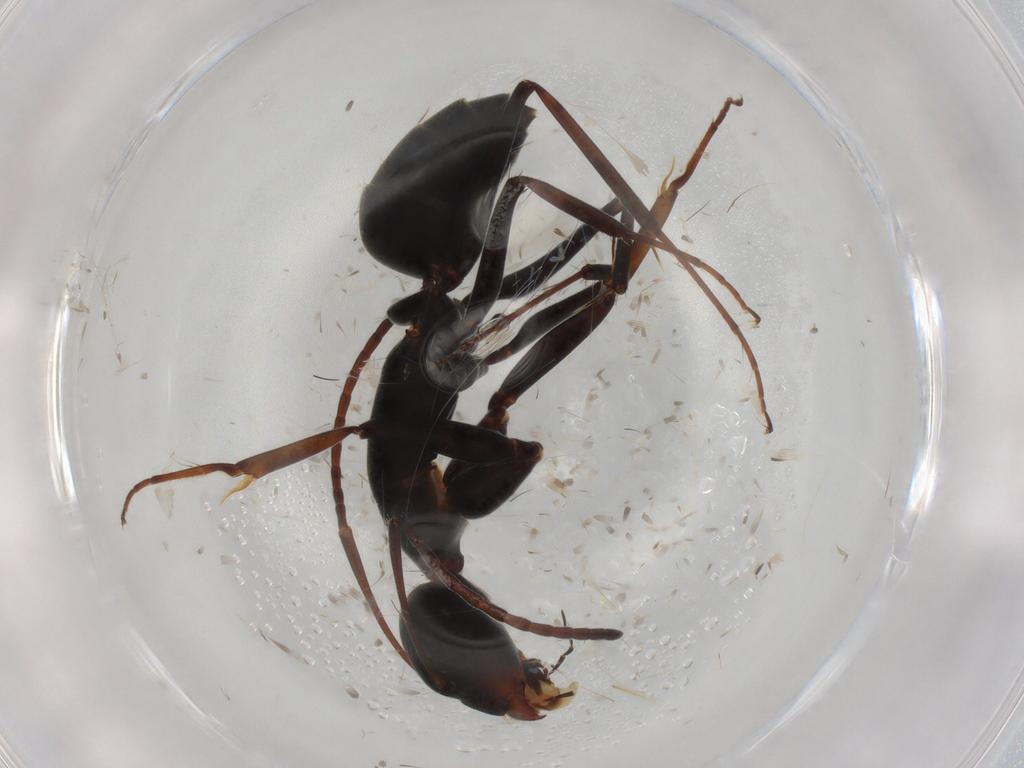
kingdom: Animalia
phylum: Arthropoda
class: Insecta
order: Hymenoptera
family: Formicidae
